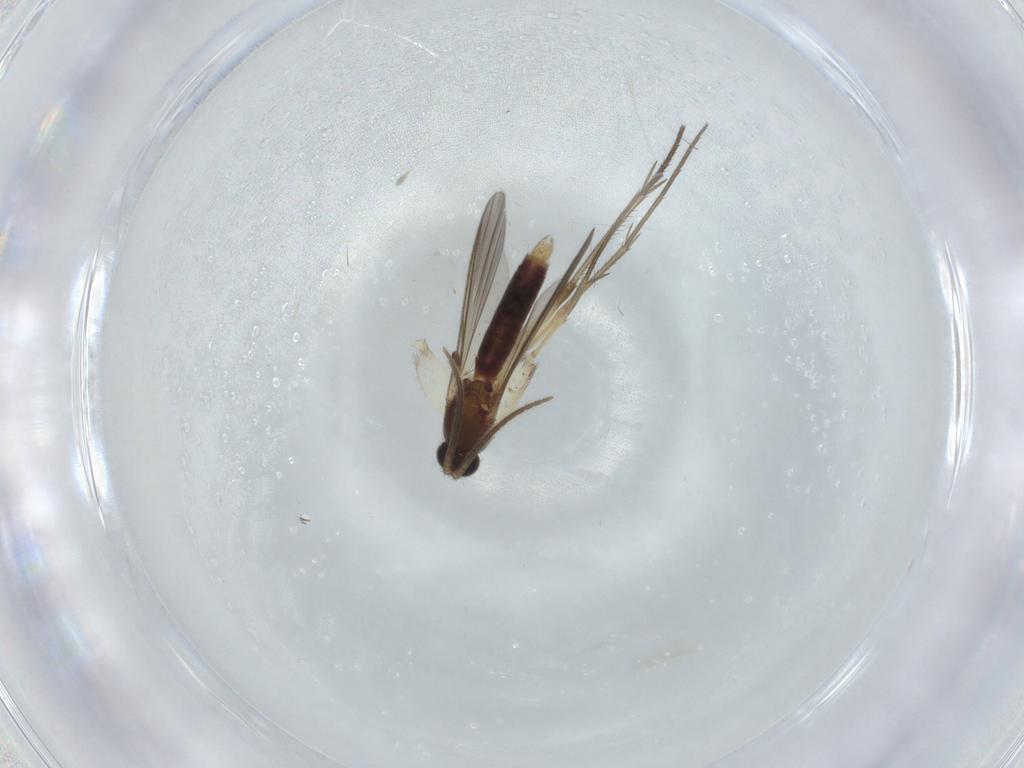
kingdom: Animalia
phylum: Arthropoda
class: Insecta
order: Diptera
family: Mycetophilidae
